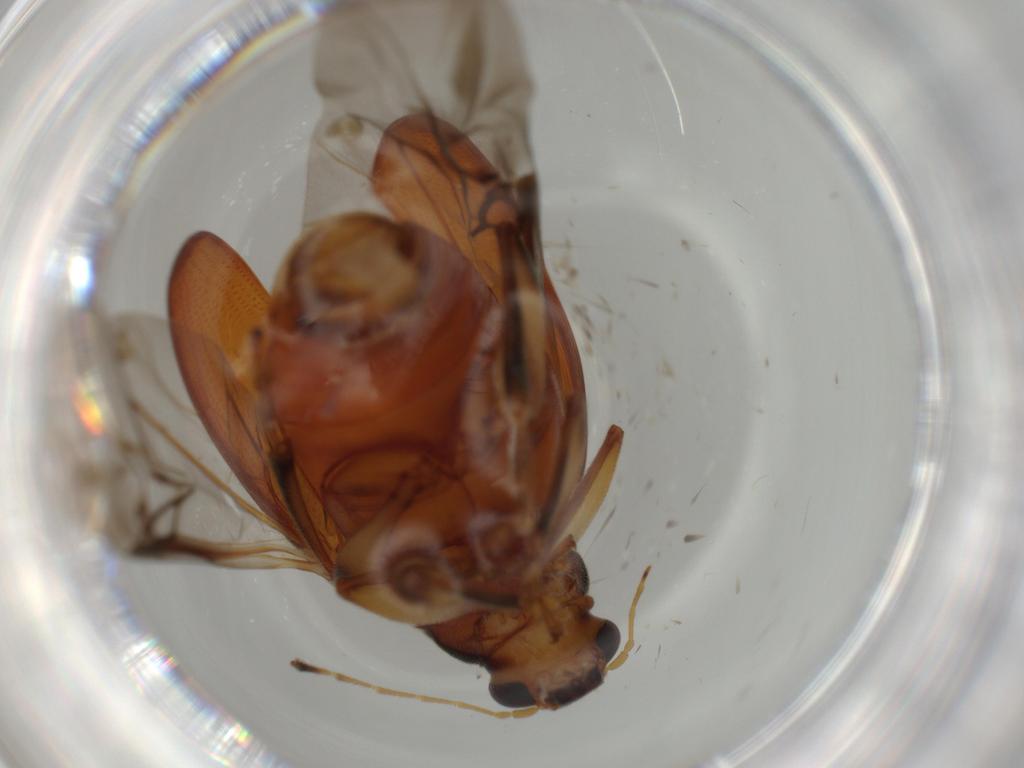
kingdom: Animalia
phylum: Arthropoda
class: Insecta
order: Coleoptera
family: Chrysomelidae
